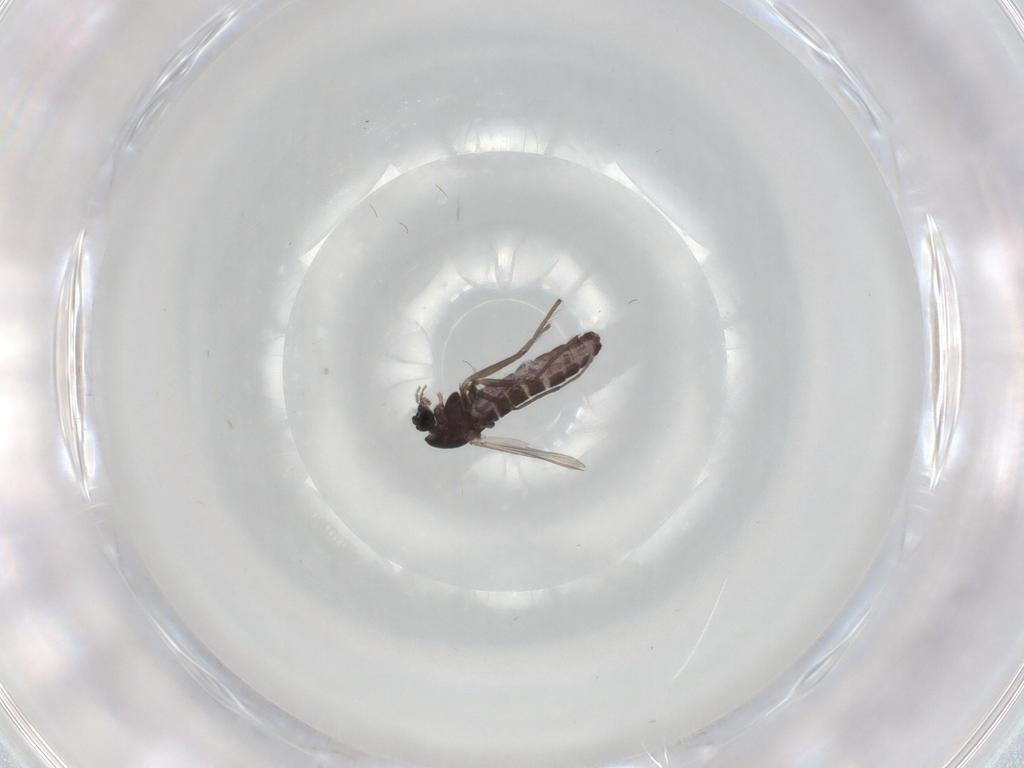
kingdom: Animalia
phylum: Arthropoda
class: Insecta
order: Diptera
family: Chironomidae
